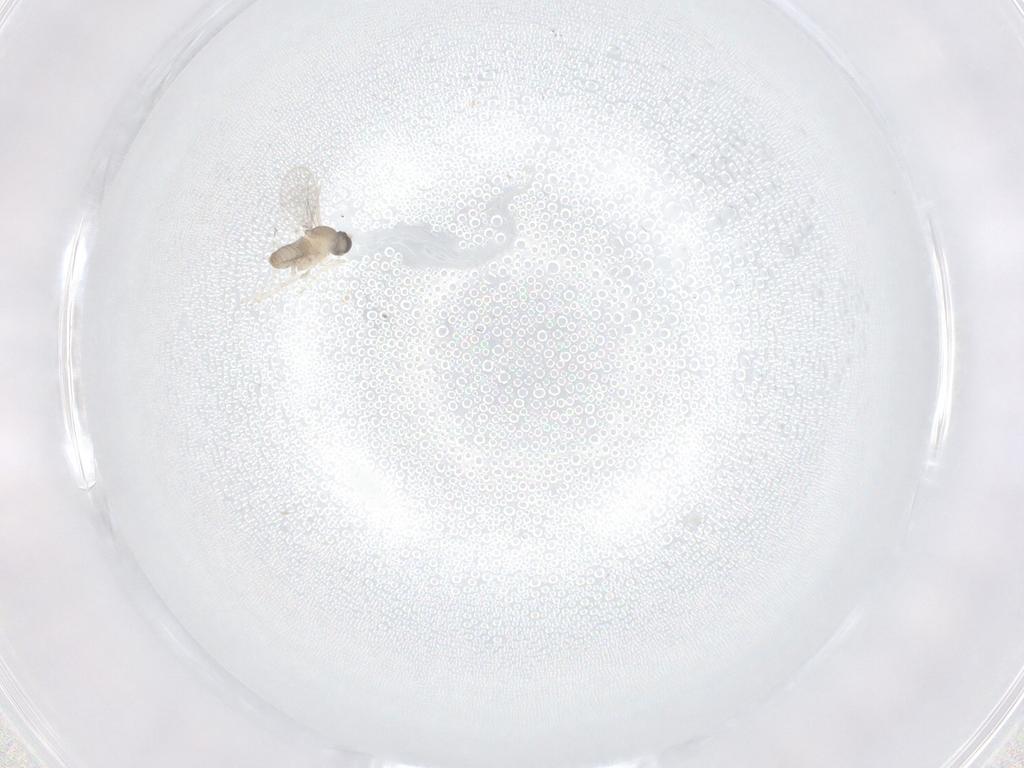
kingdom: Animalia
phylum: Arthropoda
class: Insecta
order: Diptera
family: Cecidomyiidae
